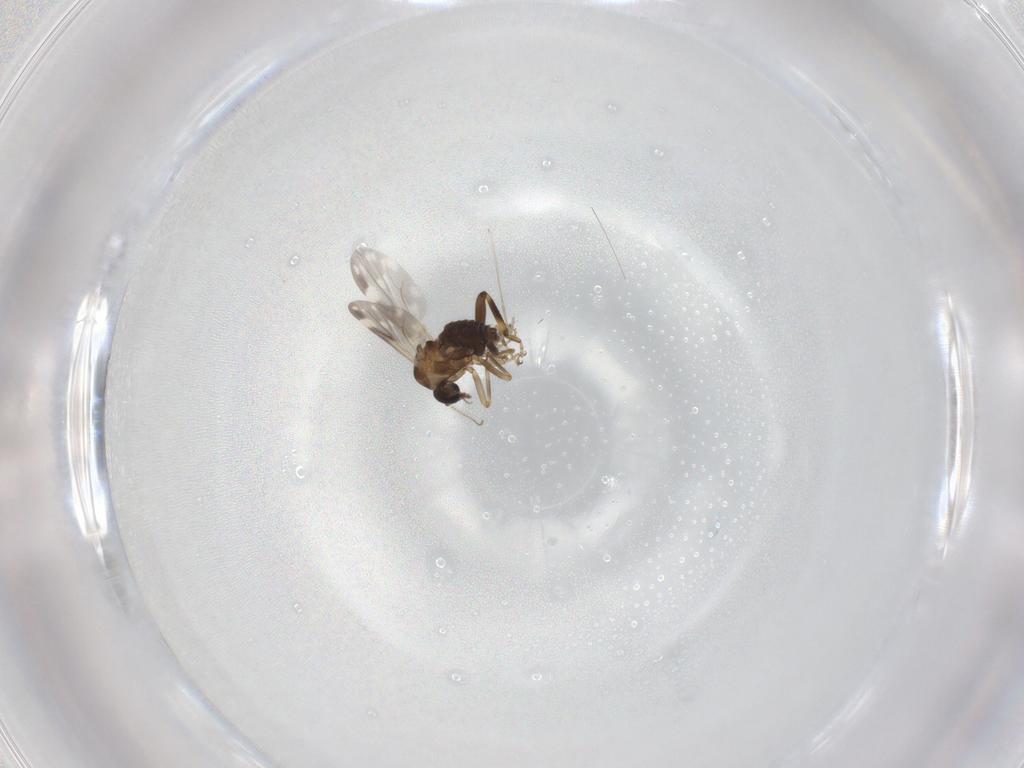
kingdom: Animalia
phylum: Arthropoda
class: Insecta
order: Diptera
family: Ceratopogonidae
